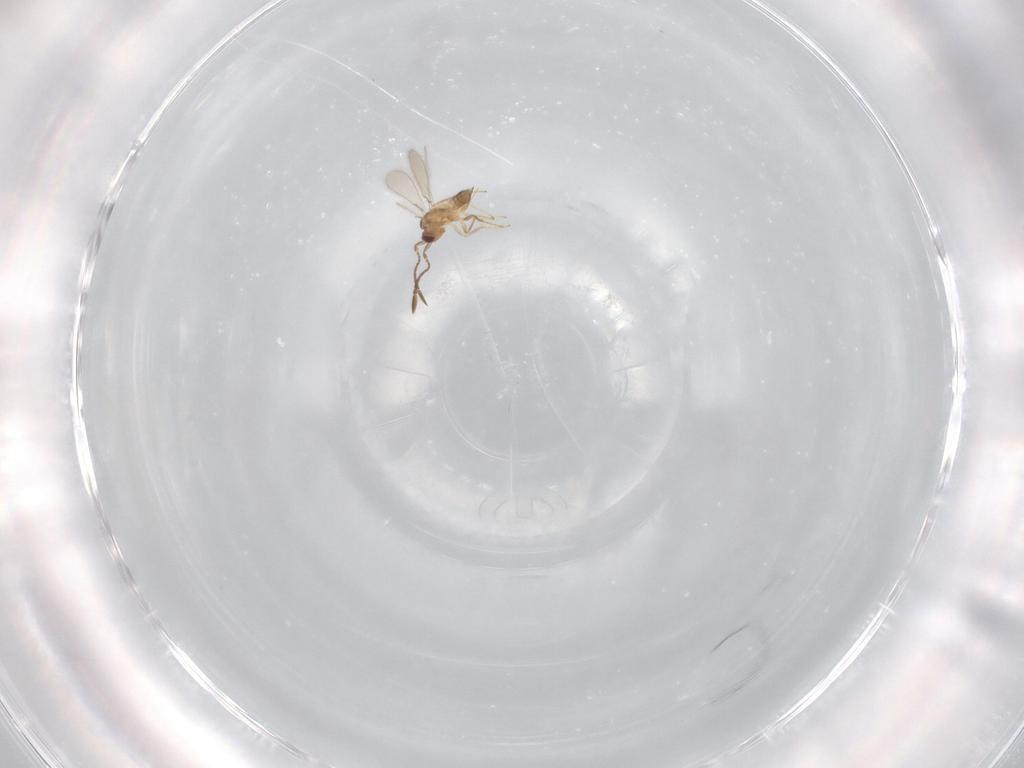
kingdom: Animalia
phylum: Arthropoda
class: Insecta
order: Hymenoptera
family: Mymaridae
